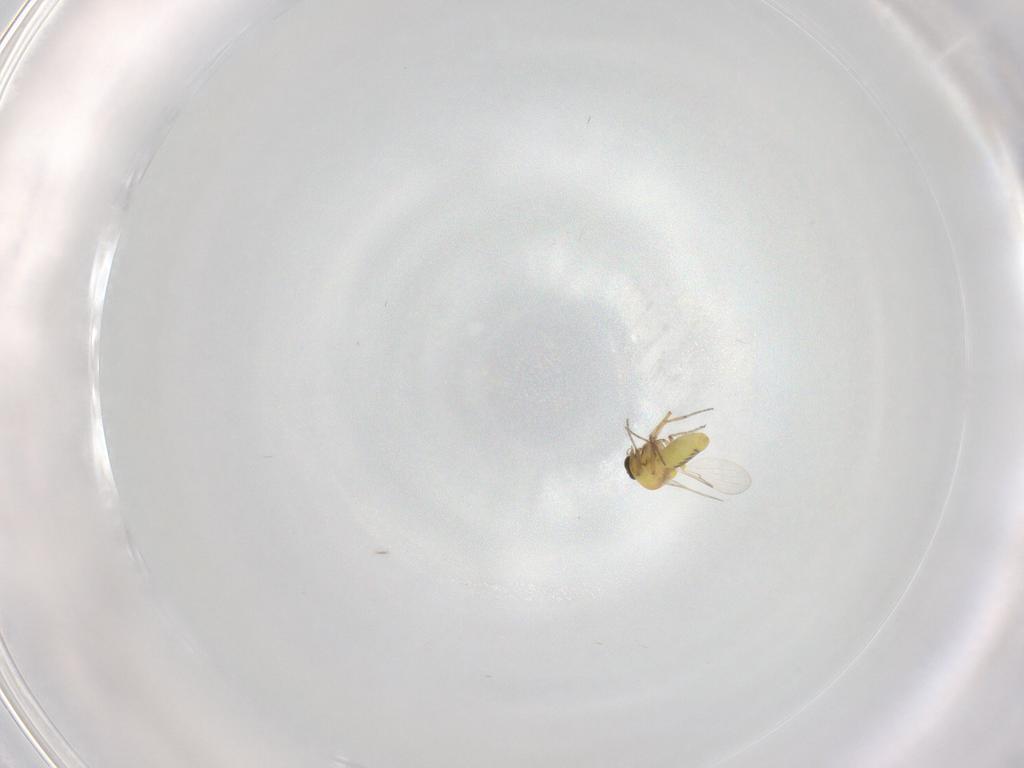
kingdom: Animalia
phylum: Arthropoda
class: Insecta
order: Diptera
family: Ceratopogonidae
